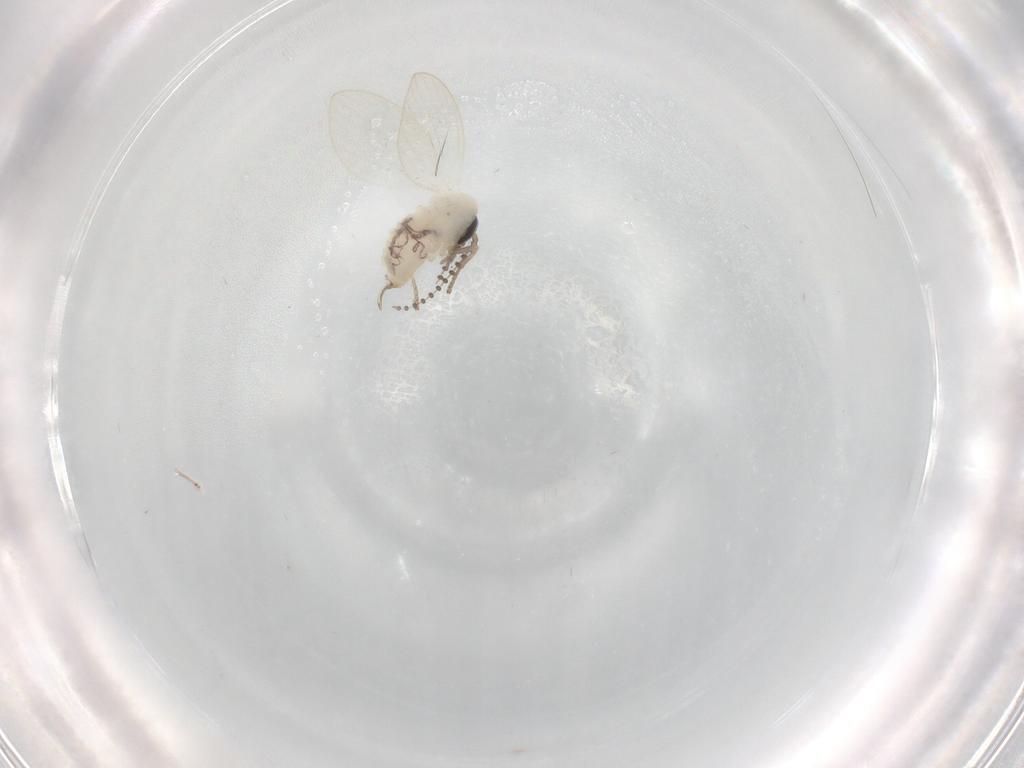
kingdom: Animalia
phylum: Arthropoda
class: Insecta
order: Diptera
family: Psychodidae
